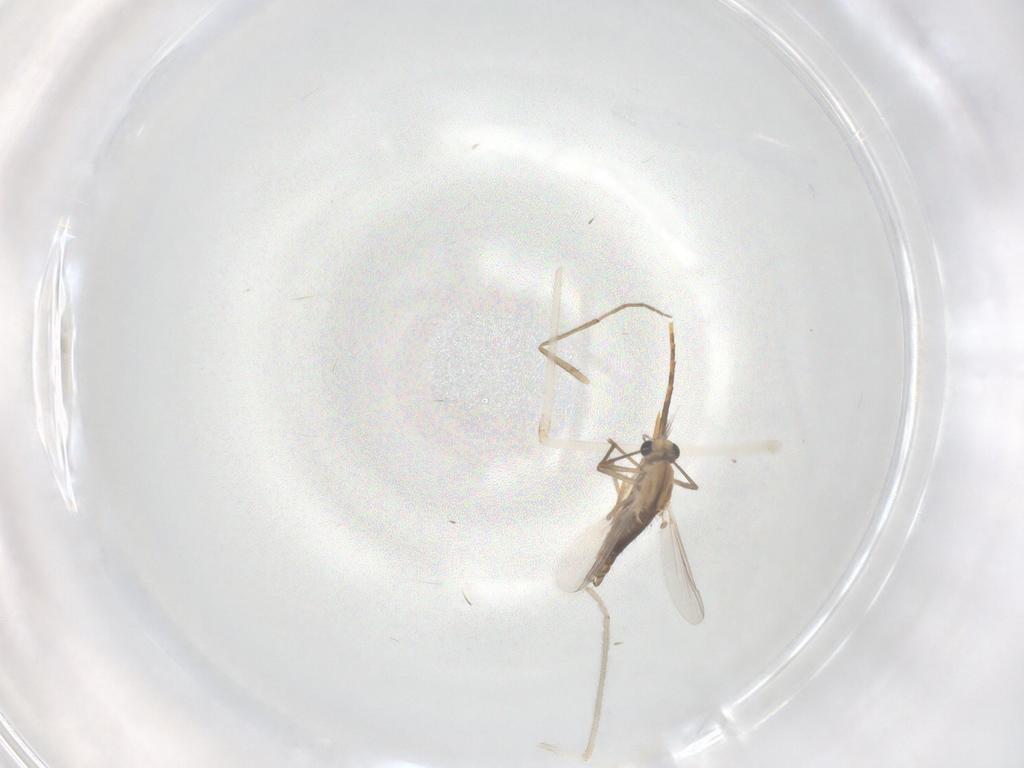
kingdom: Animalia
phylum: Arthropoda
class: Insecta
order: Diptera
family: Chironomidae
